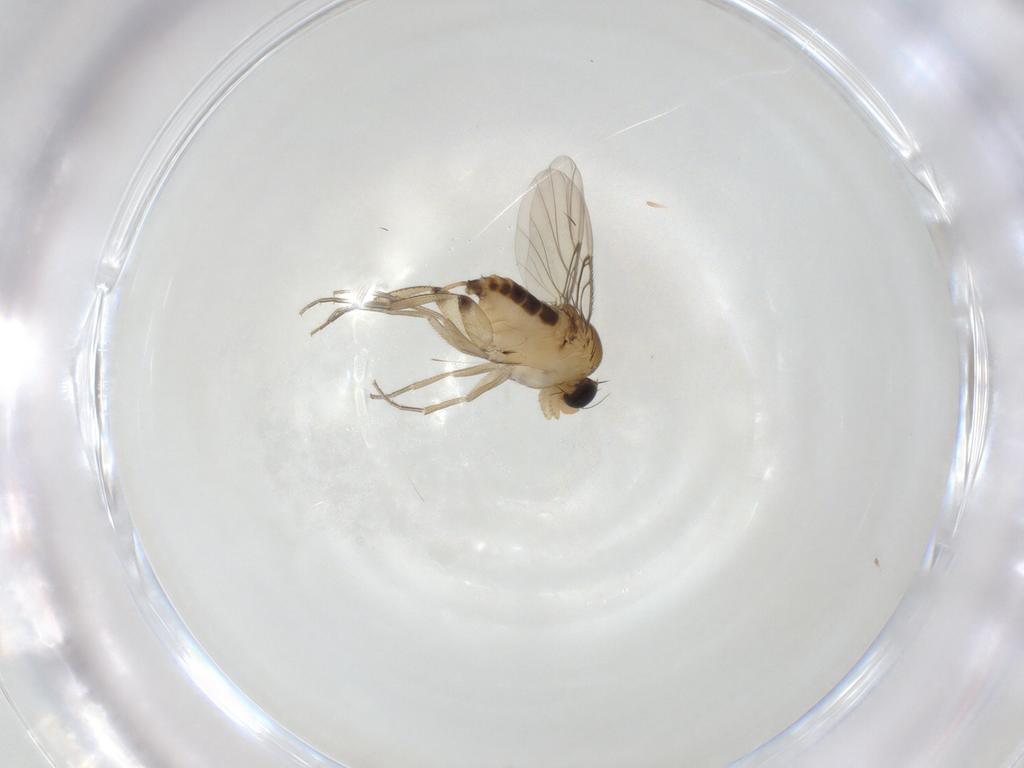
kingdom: Animalia
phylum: Arthropoda
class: Insecta
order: Diptera
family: Phoridae
